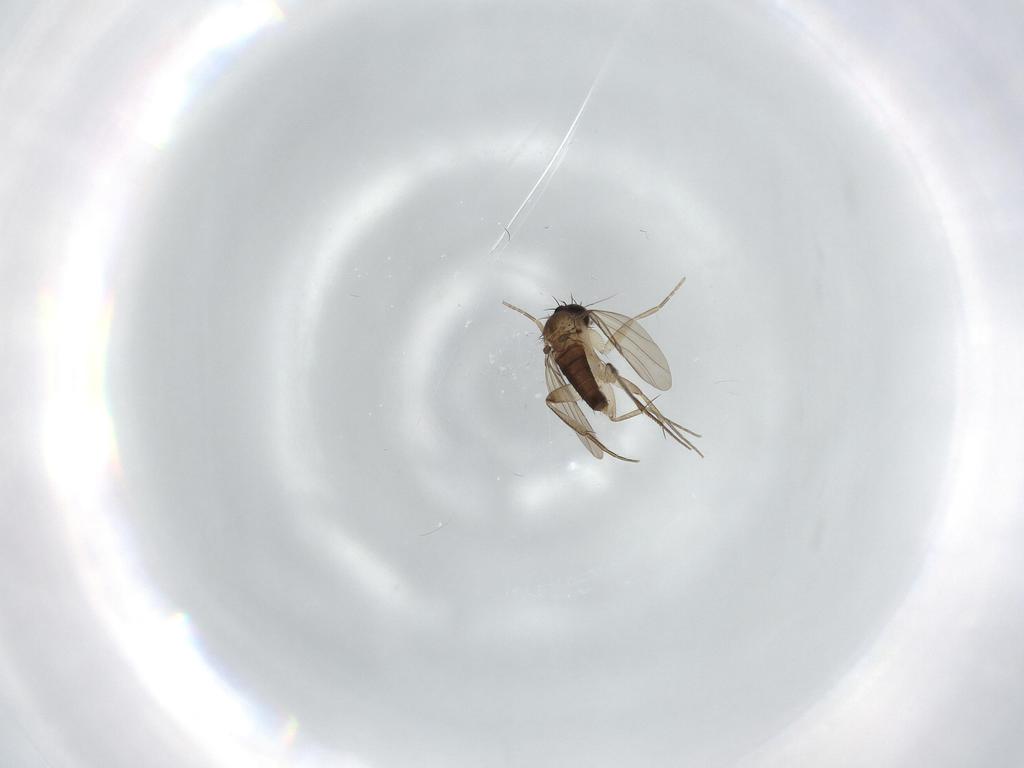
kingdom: Animalia
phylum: Arthropoda
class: Insecta
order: Diptera
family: Phoridae
